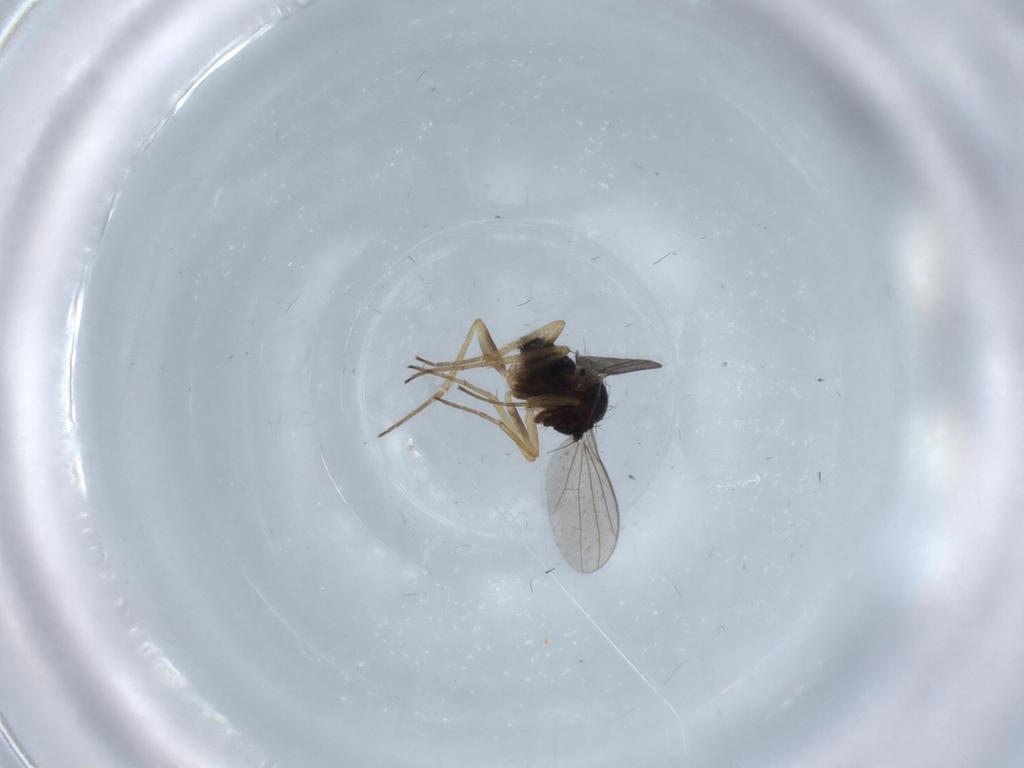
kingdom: Animalia
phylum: Arthropoda
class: Insecta
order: Diptera
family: Dolichopodidae
